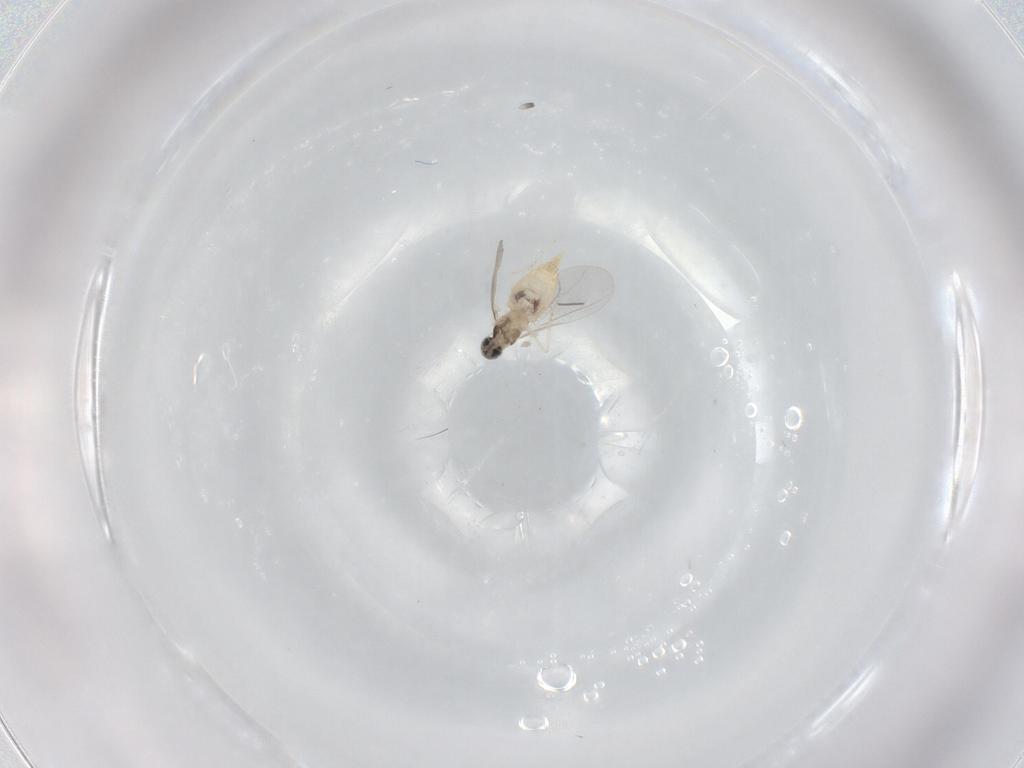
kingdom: Animalia
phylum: Arthropoda
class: Insecta
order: Diptera
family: Cecidomyiidae
